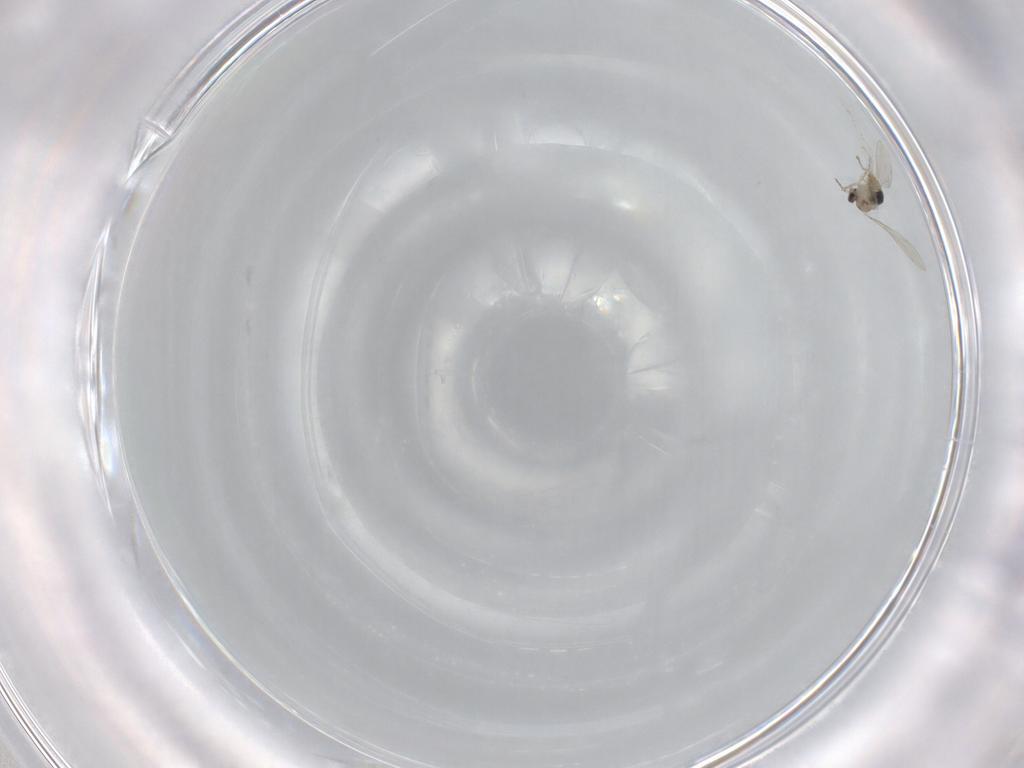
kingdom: Animalia
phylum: Arthropoda
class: Insecta
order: Diptera
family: Cecidomyiidae
